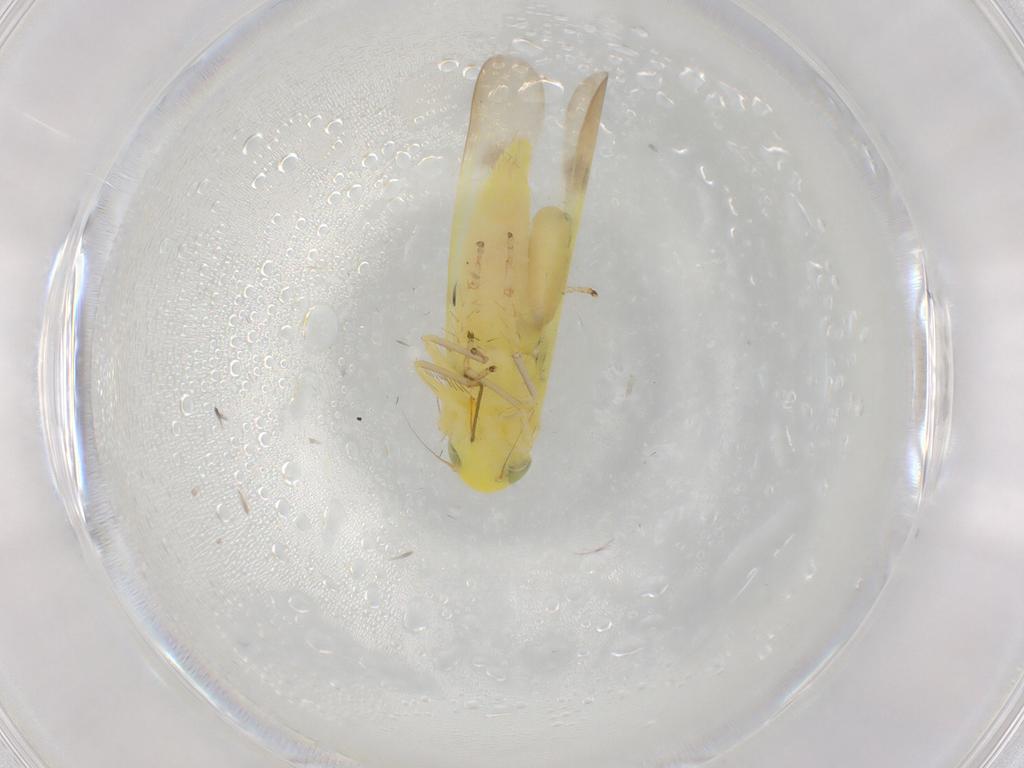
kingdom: Animalia
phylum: Arthropoda
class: Insecta
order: Hemiptera
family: Cicadellidae
